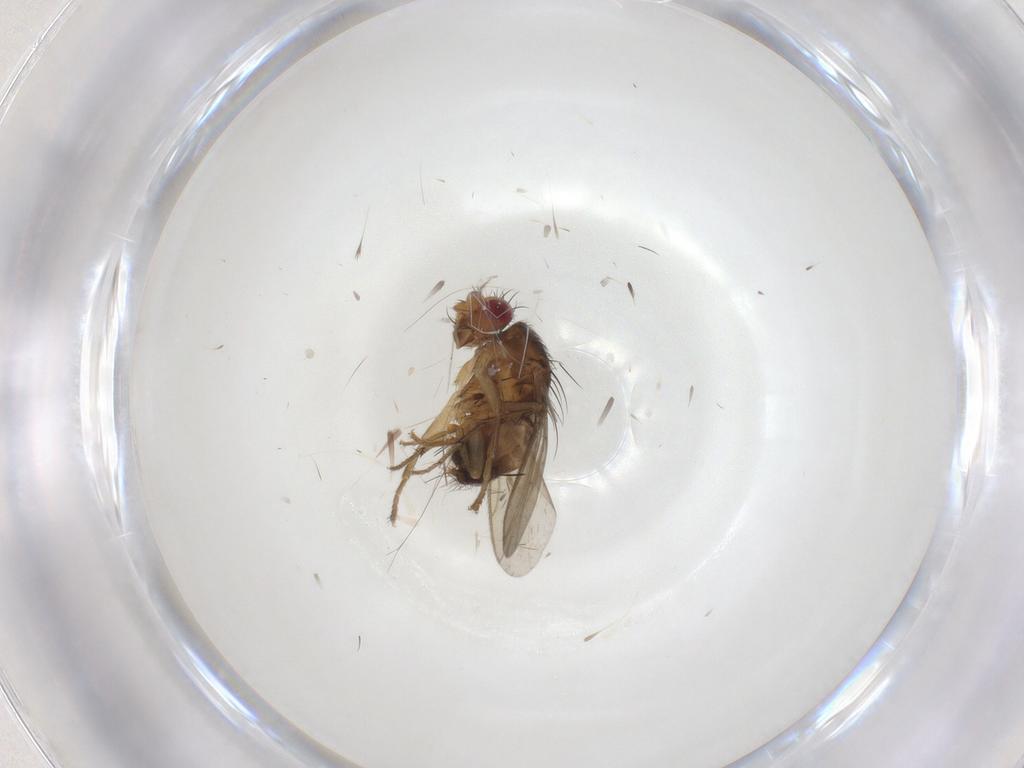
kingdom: Animalia
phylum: Arthropoda
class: Insecta
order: Diptera
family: Sphaeroceridae
